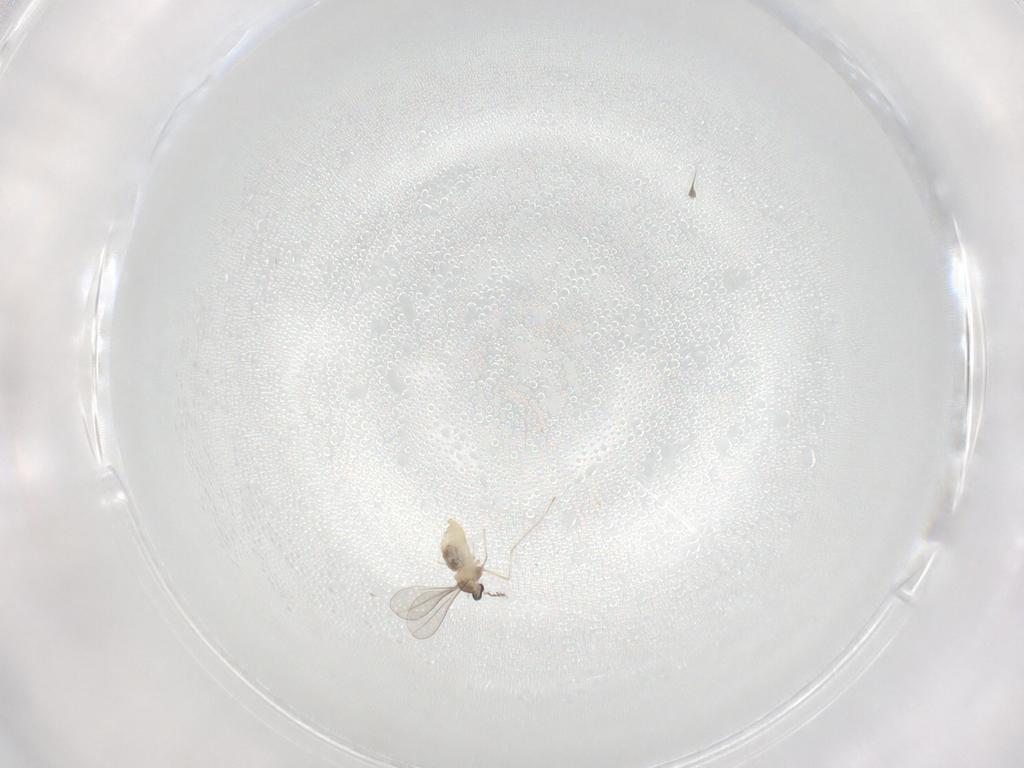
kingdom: Animalia
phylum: Arthropoda
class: Insecta
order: Diptera
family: Cecidomyiidae
